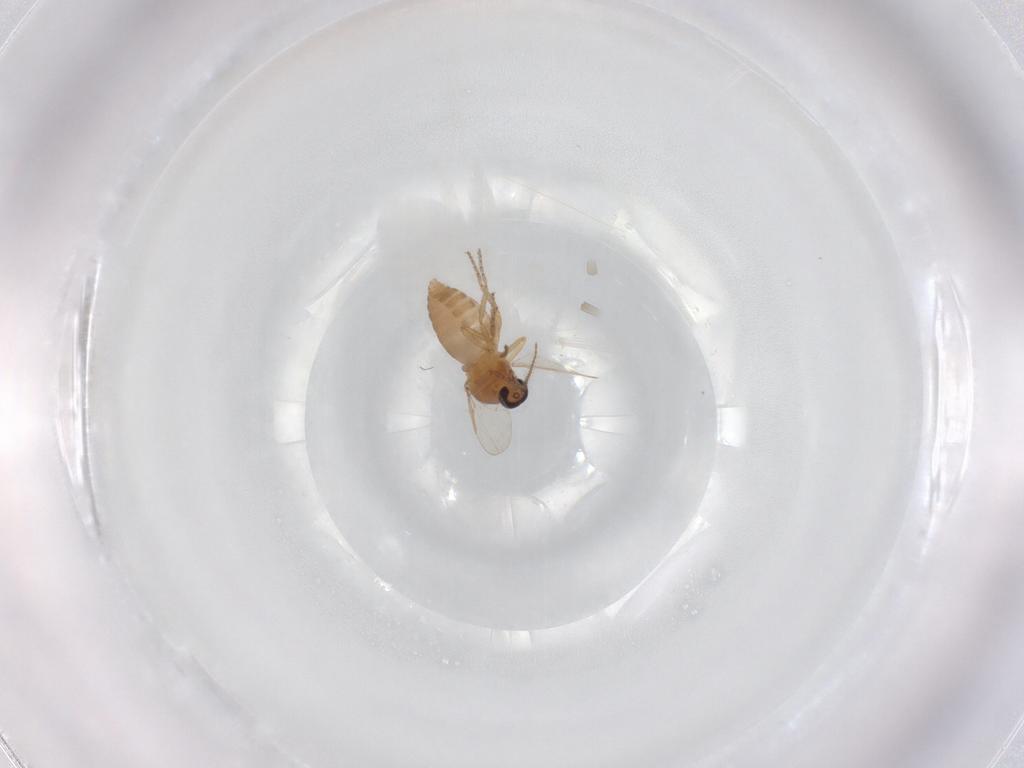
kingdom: Animalia
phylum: Arthropoda
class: Insecta
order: Diptera
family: Ceratopogonidae
